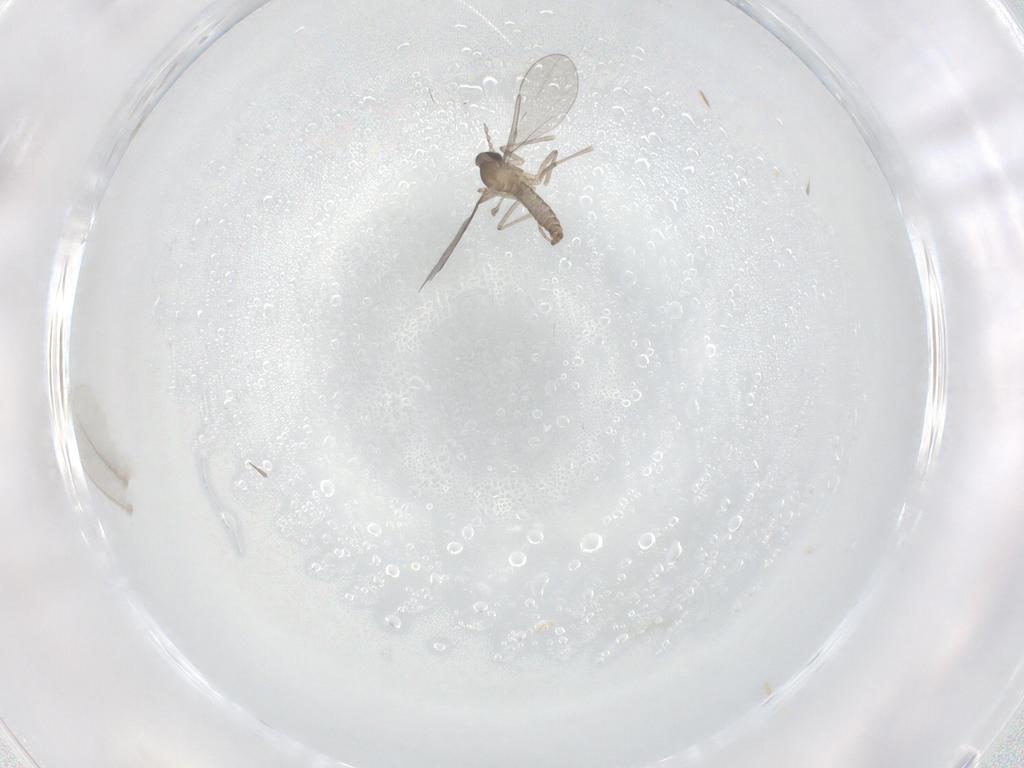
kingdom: Animalia
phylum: Arthropoda
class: Insecta
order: Diptera
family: Cecidomyiidae
